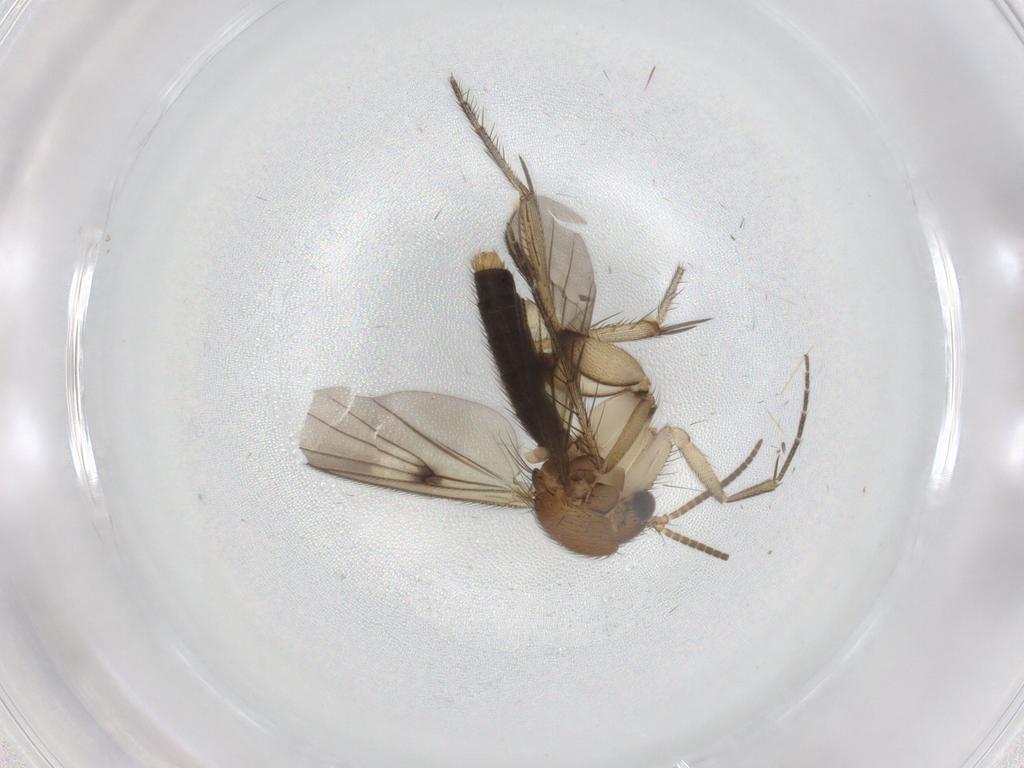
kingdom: Animalia
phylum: Arthropoda
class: Insecta
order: Diptera
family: Mycetophilidae
